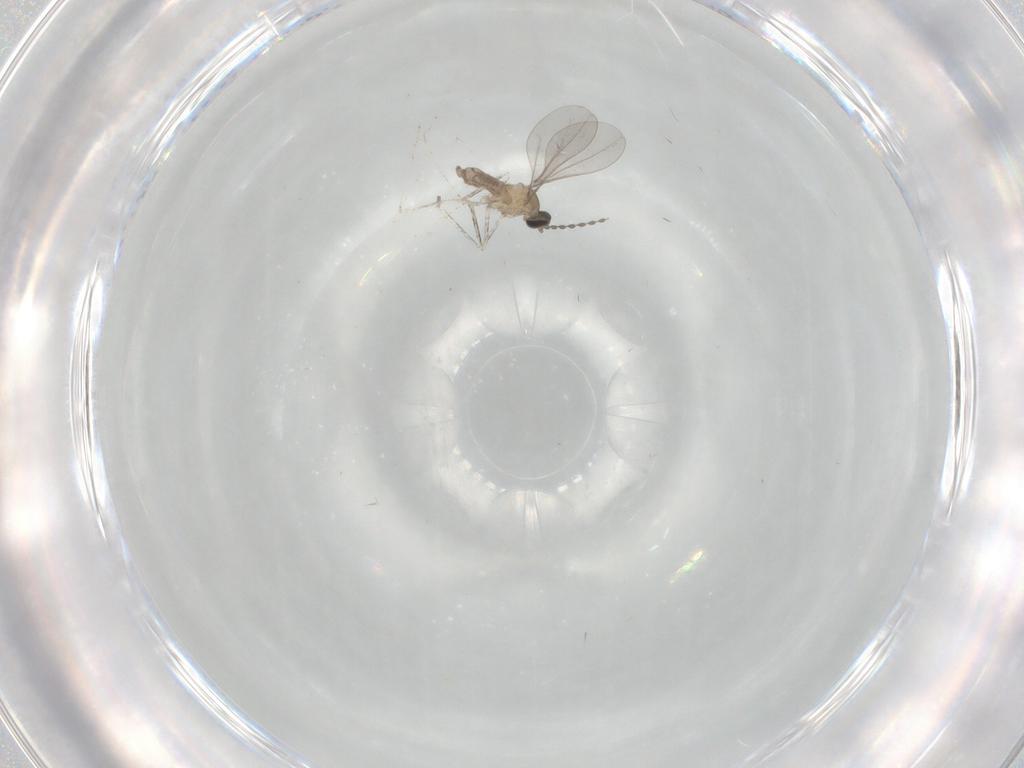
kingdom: Animalia
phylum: Arthropoda
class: Insecta
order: Diptera
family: Cecidomyiidae
